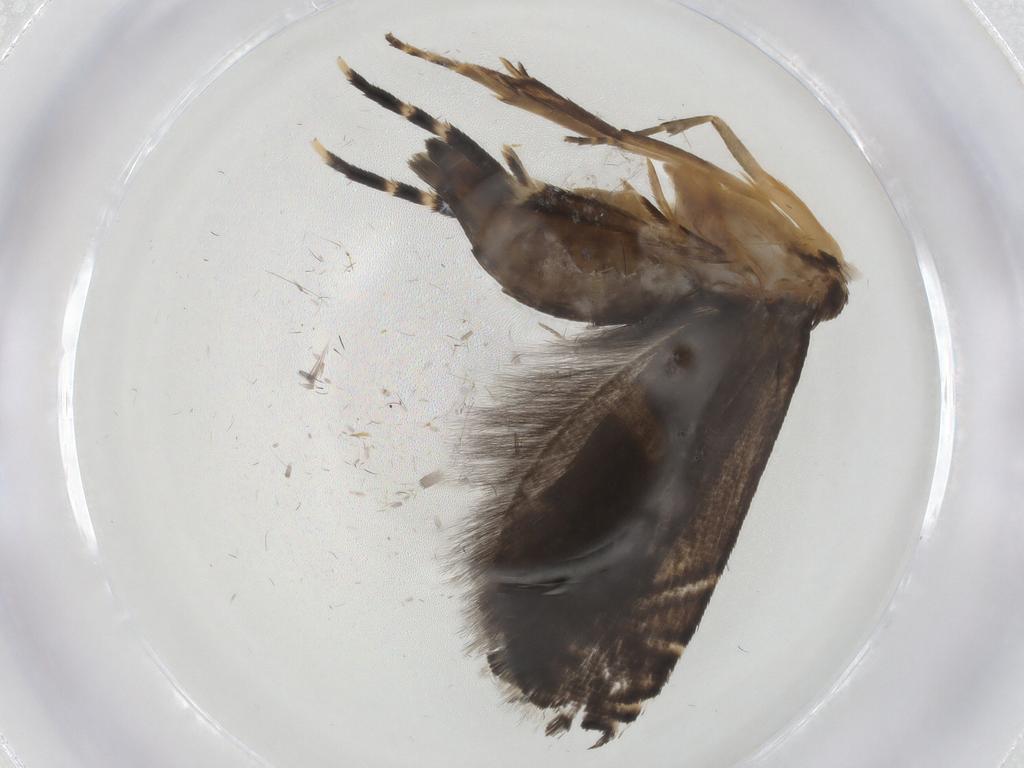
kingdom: Animalia
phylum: Arthropoda
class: Insecta
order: Lepidoptera
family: Glyphipterigidae
